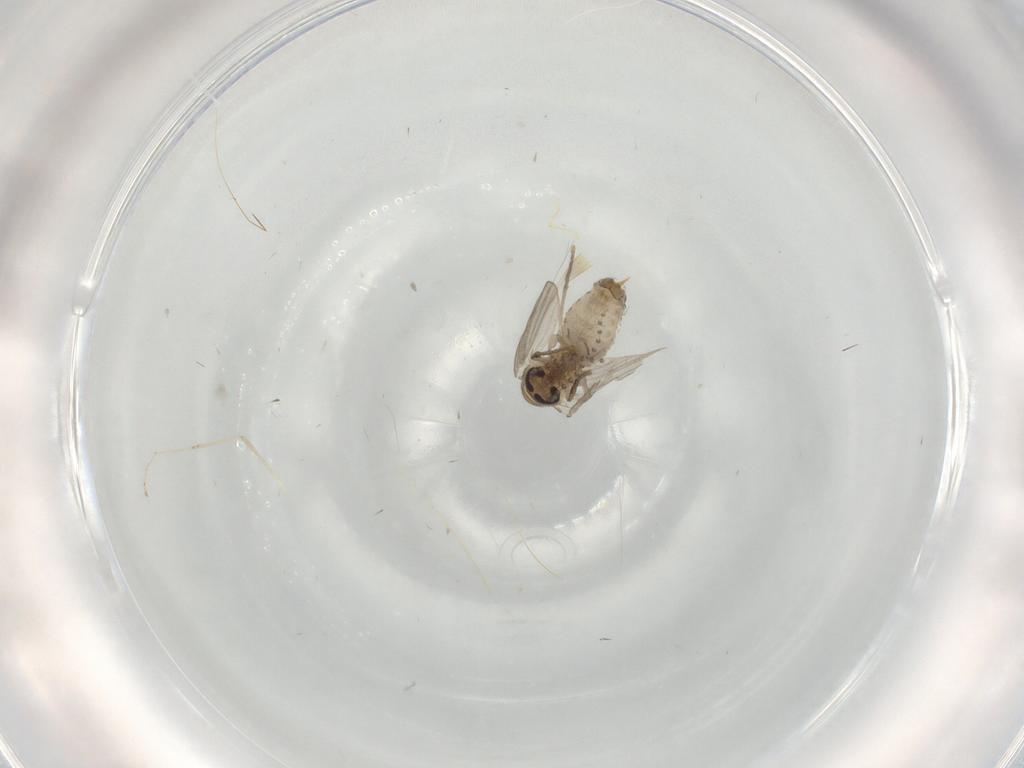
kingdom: Animalia
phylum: Arthropoda
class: Insecta
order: Diptera
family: Psychodidae
